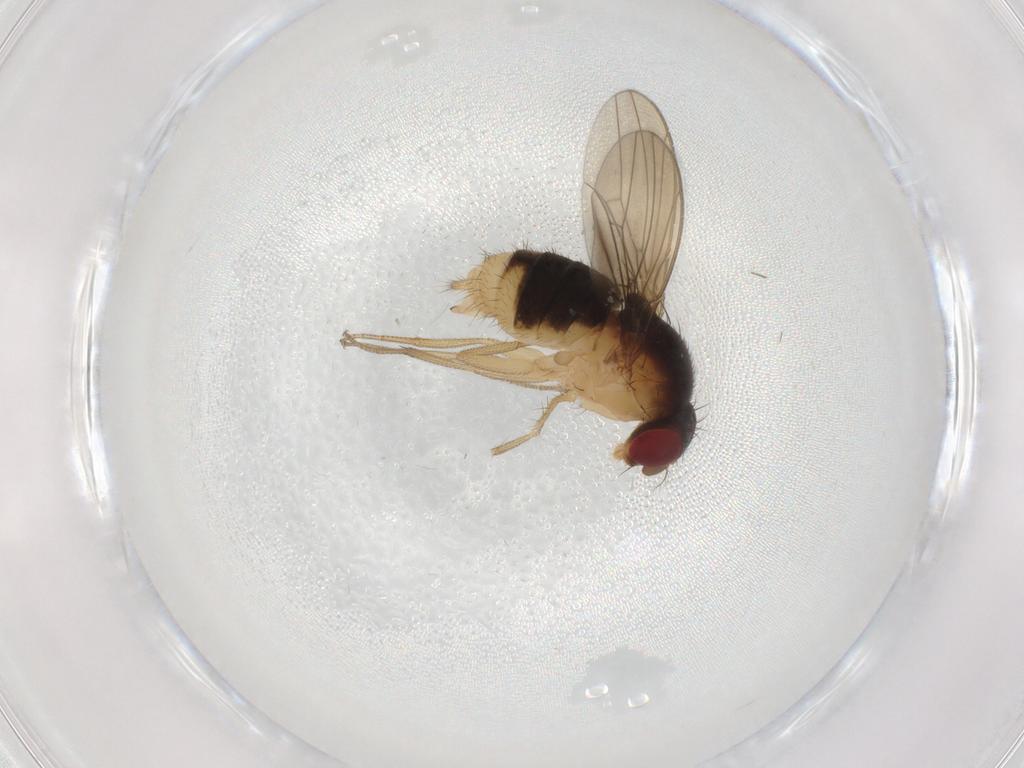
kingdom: Animalia
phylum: Arthropoda
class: Insecta
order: Diptera
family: Drosophilidae
